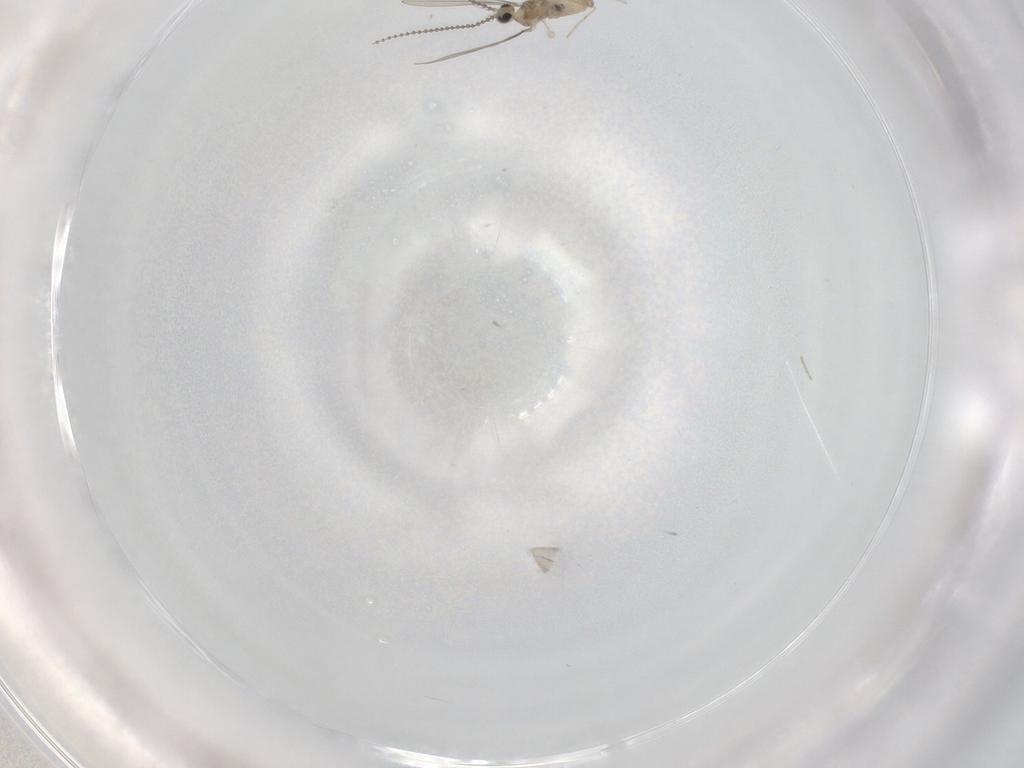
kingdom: Animalia
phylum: Arthropoda
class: Insecta
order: Diptera
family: Cecidomyiidae
